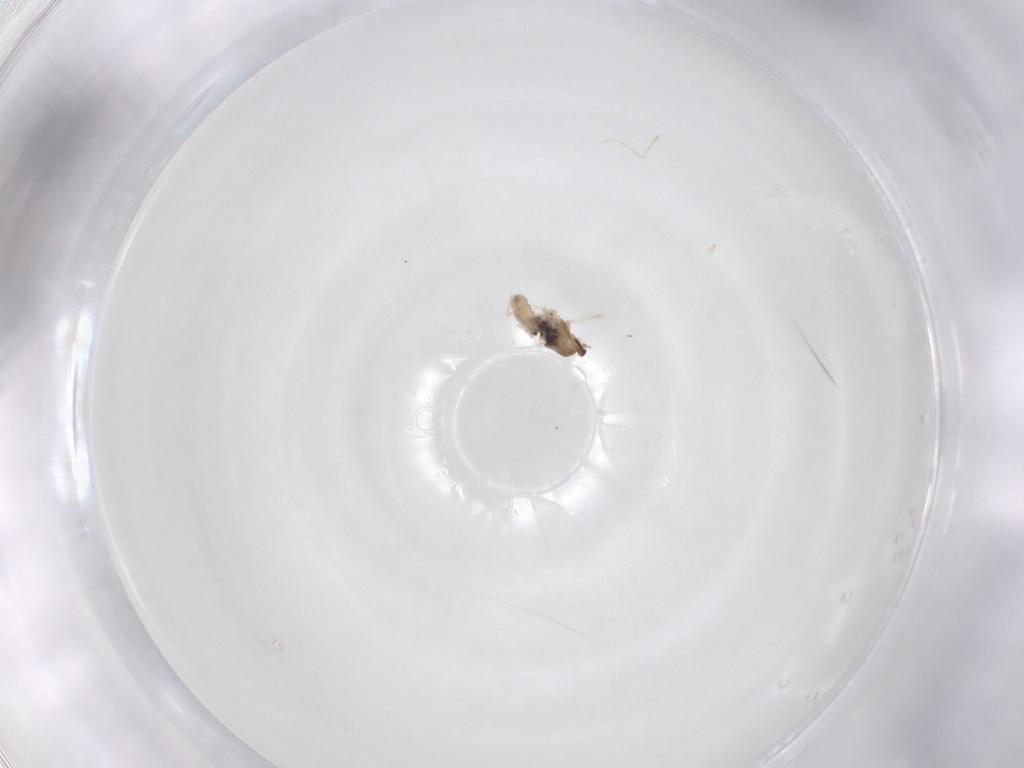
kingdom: Animalia
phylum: Arthropoda
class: Insecta
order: Diptera
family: Sciaridae
